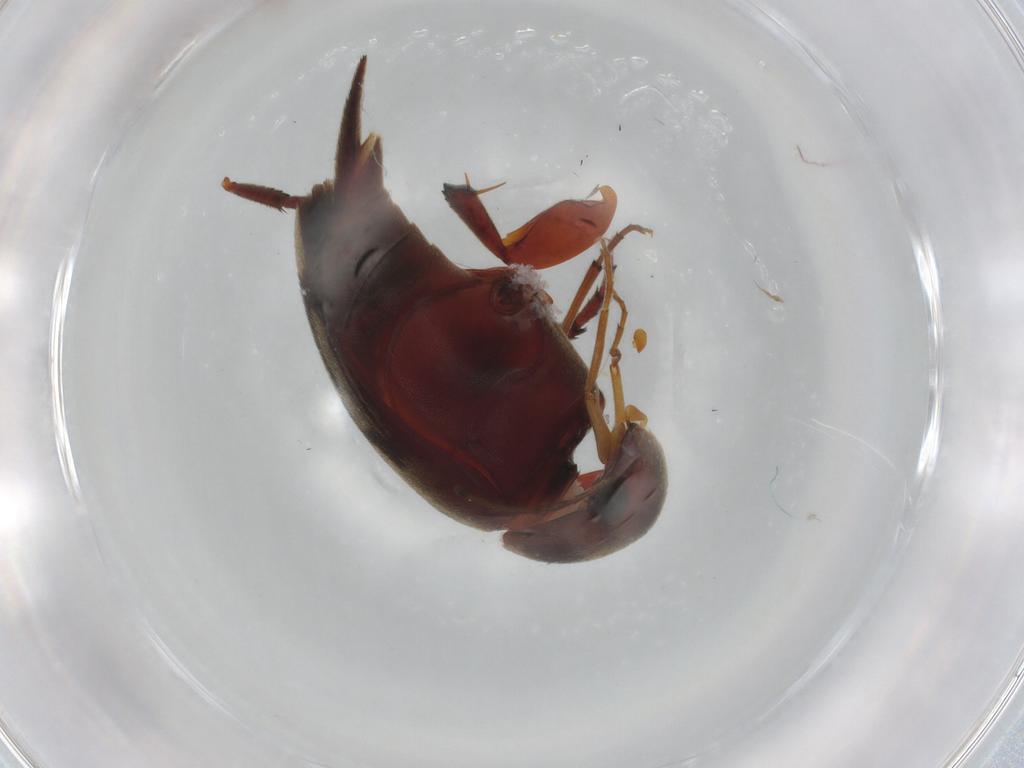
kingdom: Animalia
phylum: Arthropoda
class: Insecta
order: Coleoptera
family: Mordellidae
